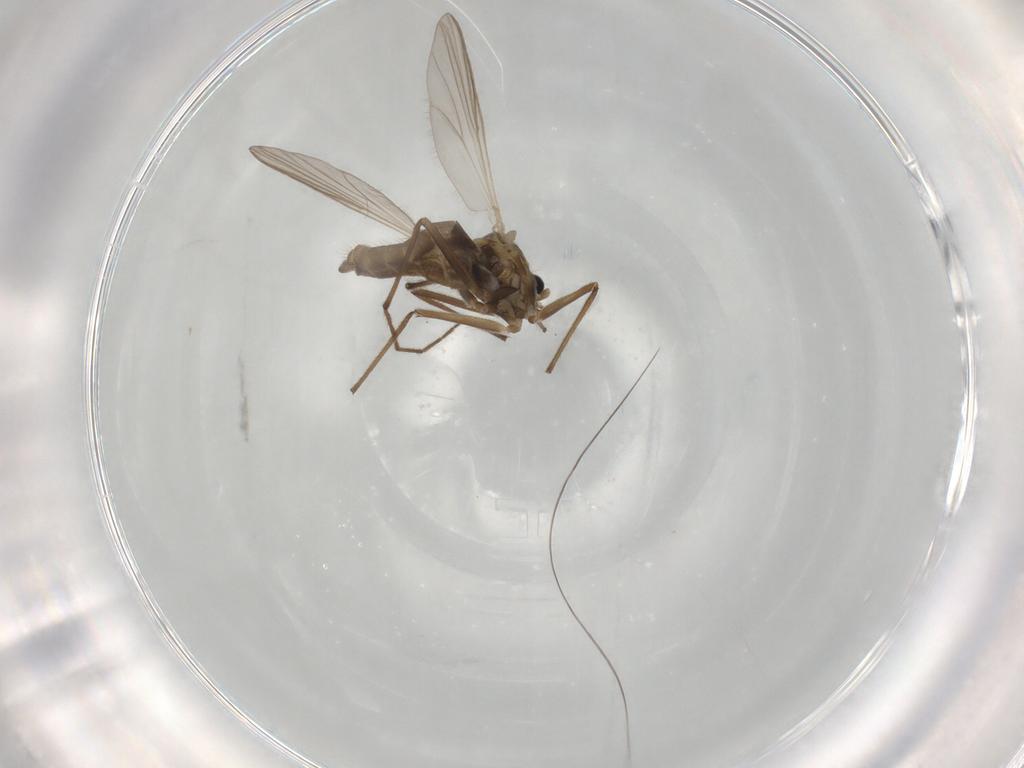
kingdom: Animalia
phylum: Arthropoda
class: Insecta
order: Diptera
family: Chironomidae
